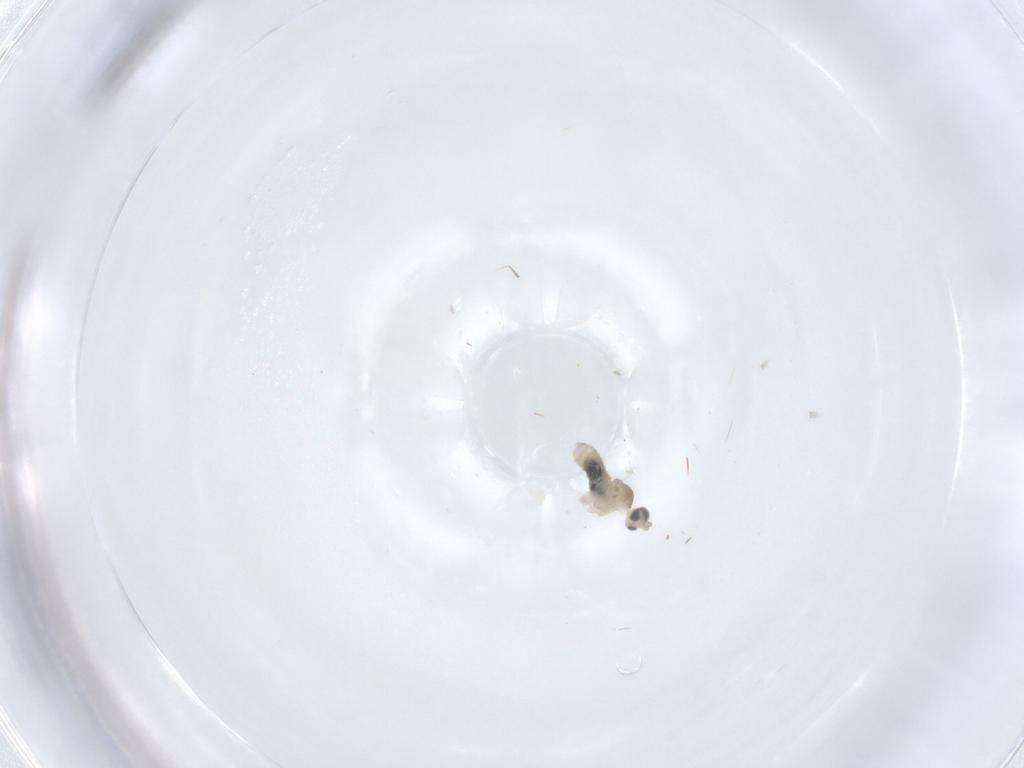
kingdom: Animalia
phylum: Arthropoda
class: Insecta
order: Diptera
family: Cecidomyiidae
